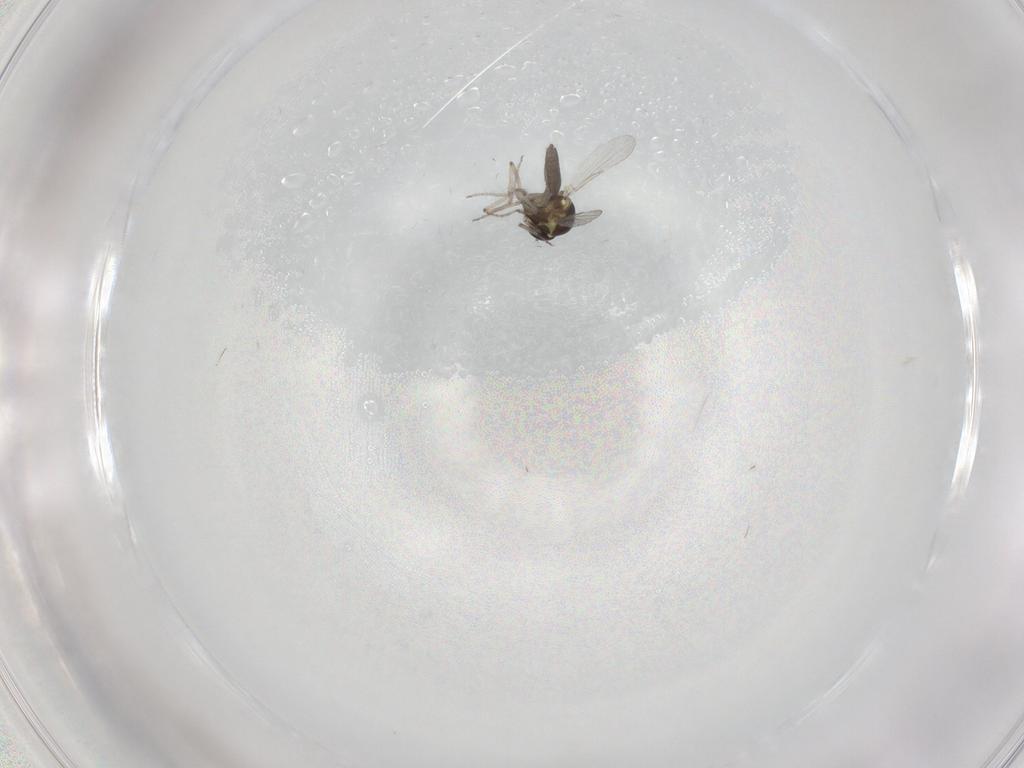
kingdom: Animalia
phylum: Arthropoda
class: Insecta
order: Diptera
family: Ceratopogonidae
